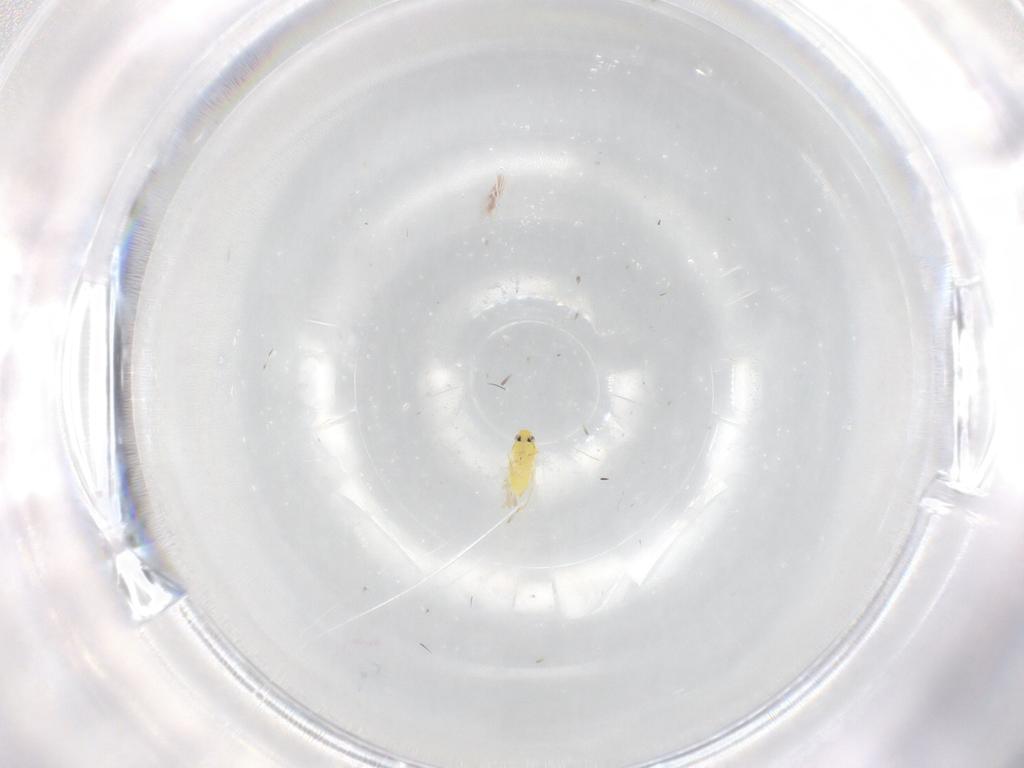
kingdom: Animalia
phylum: Arthropoda
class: Insecta
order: Hemiptera
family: Aleyrodidae
